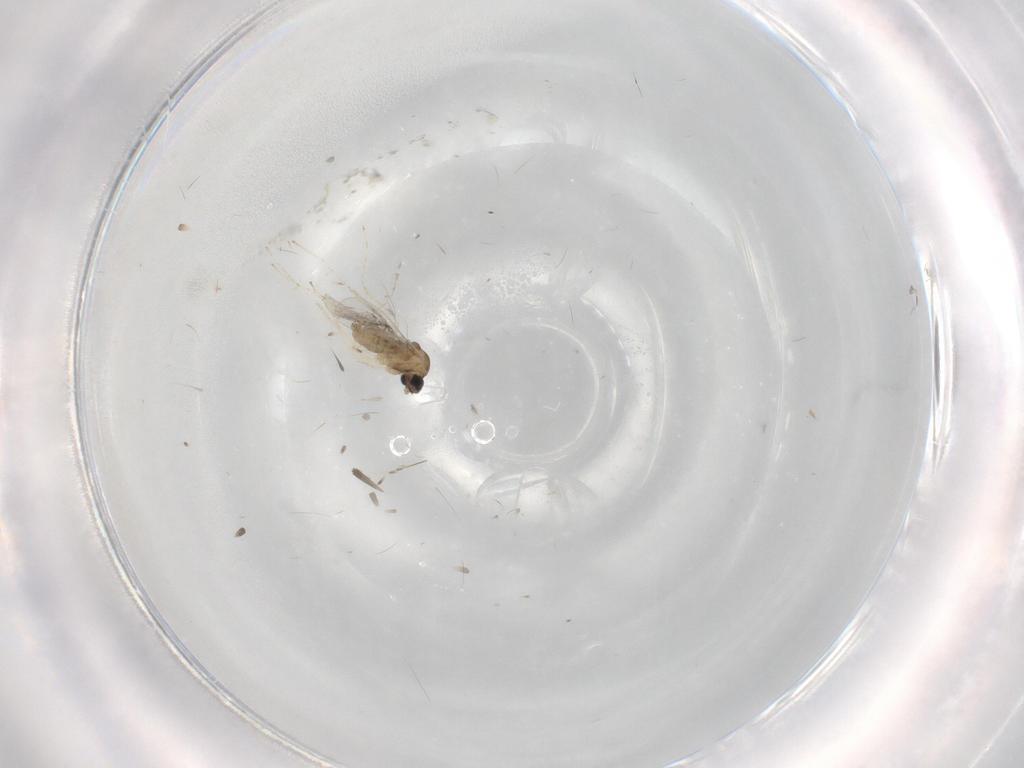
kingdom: Animalia
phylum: Arthropoda
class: Insecta
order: Diptera
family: Cecidomyiidae
